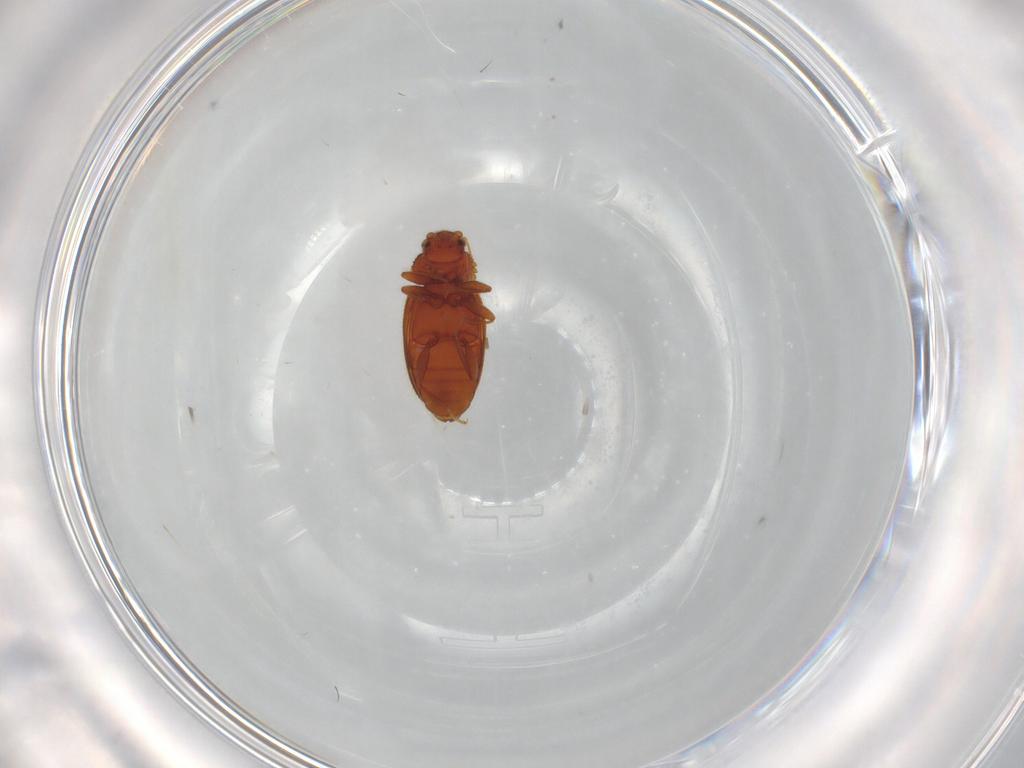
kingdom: Animalia
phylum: Arthropoda
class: Insecta
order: Coleoptera
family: Latridiidae
